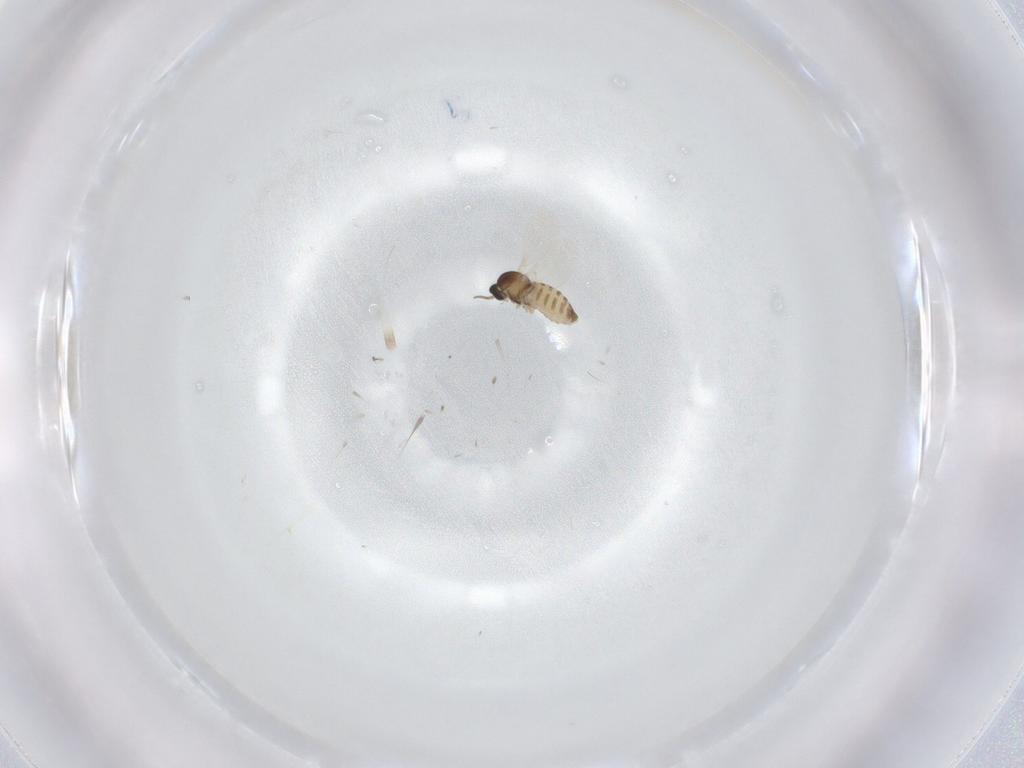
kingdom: Animalia
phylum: Arthropoda
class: Insecta
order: Diptera
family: Cecidomyiidae
